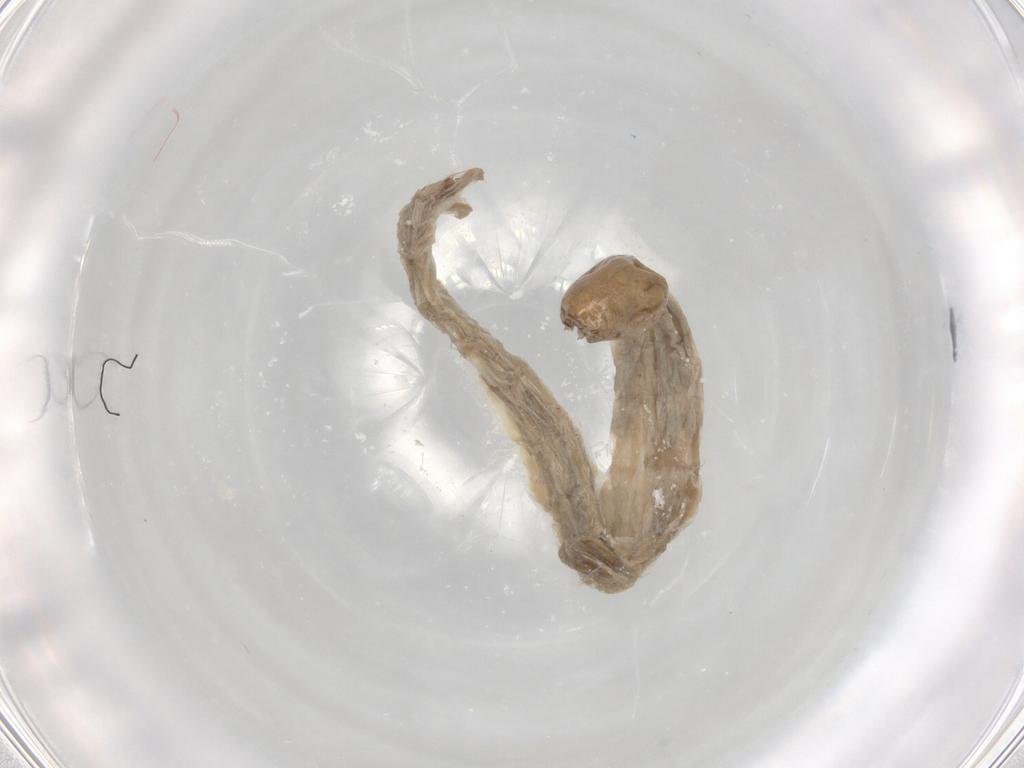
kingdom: Animalia
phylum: Arthropoda
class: Insecta
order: Diptera
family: Chironomidae
